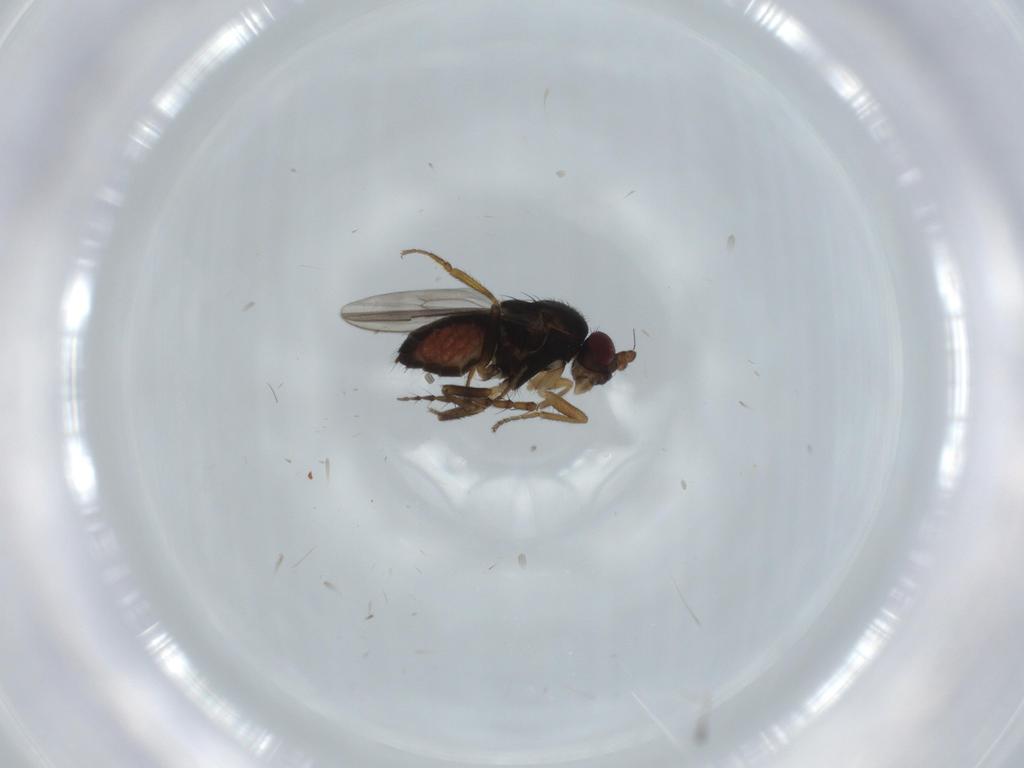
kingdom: Animalia
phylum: Arthropoda
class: Insecta
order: Diptera
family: Sphaeroceridae
